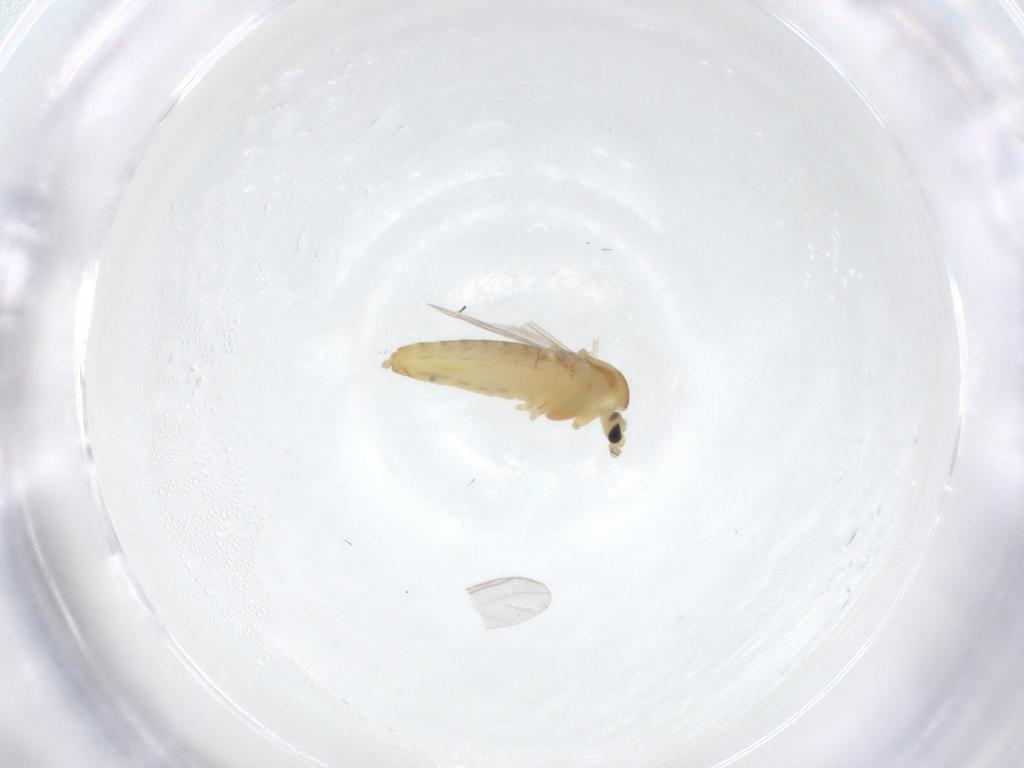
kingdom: Animalia
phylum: Arthropoda
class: Insecta
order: Diptera
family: Chironomidae
